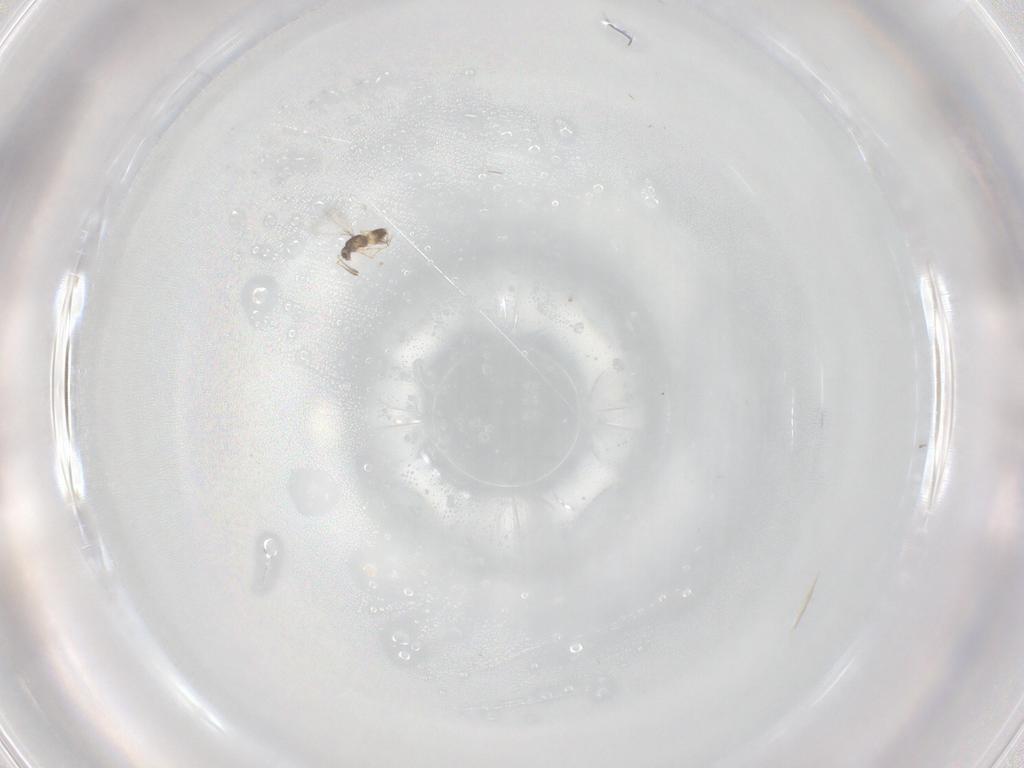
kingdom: Animalia
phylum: Arthropoda
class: Insecta
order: Hymenoptera
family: Mymaridae
